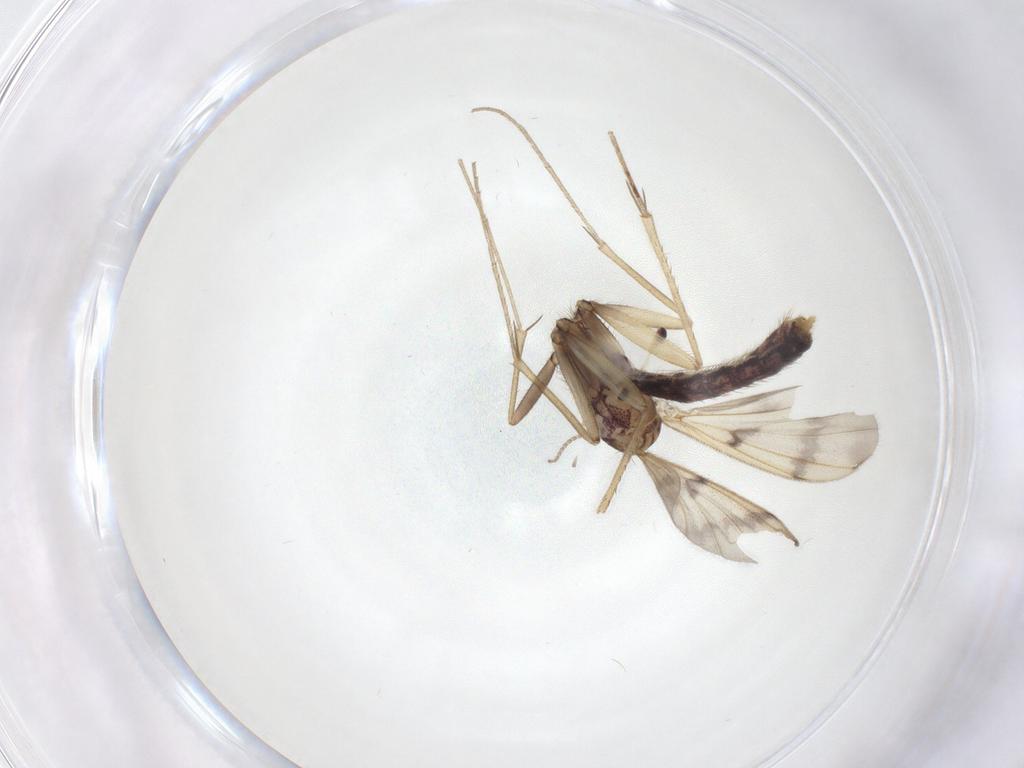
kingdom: Animalia
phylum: Arthropoda
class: Insecta
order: Diptera
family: Mycetophilidae
